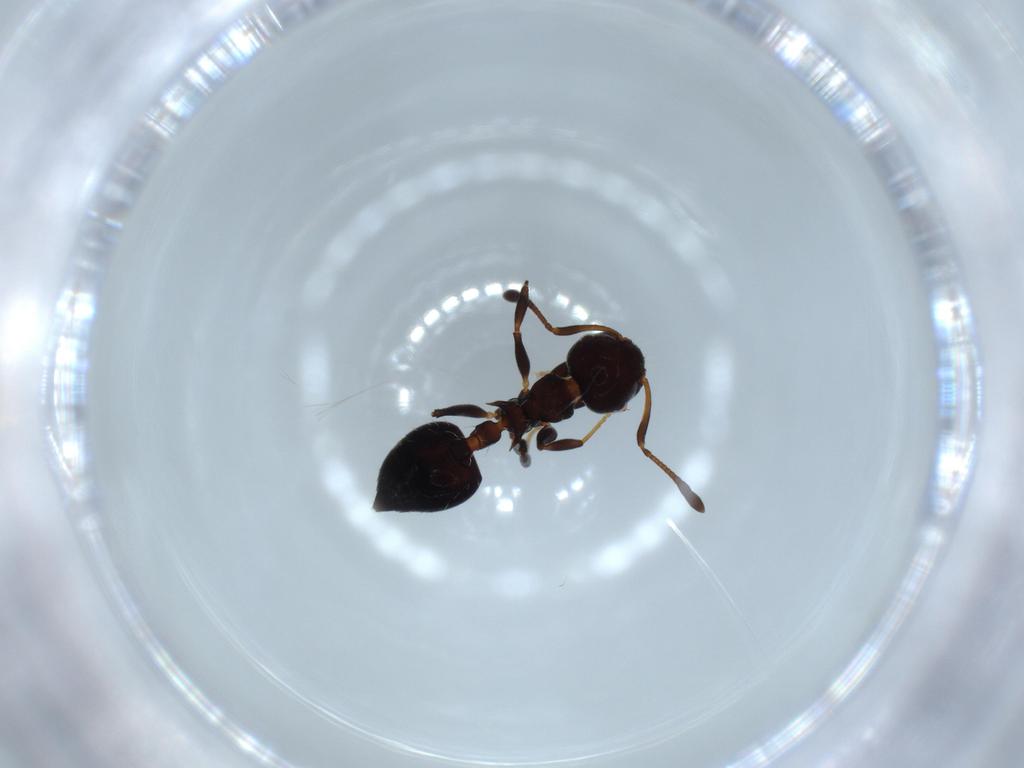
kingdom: Animalia
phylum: Arthropoda
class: Insecta
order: Hymenoptera
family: Formicidae
